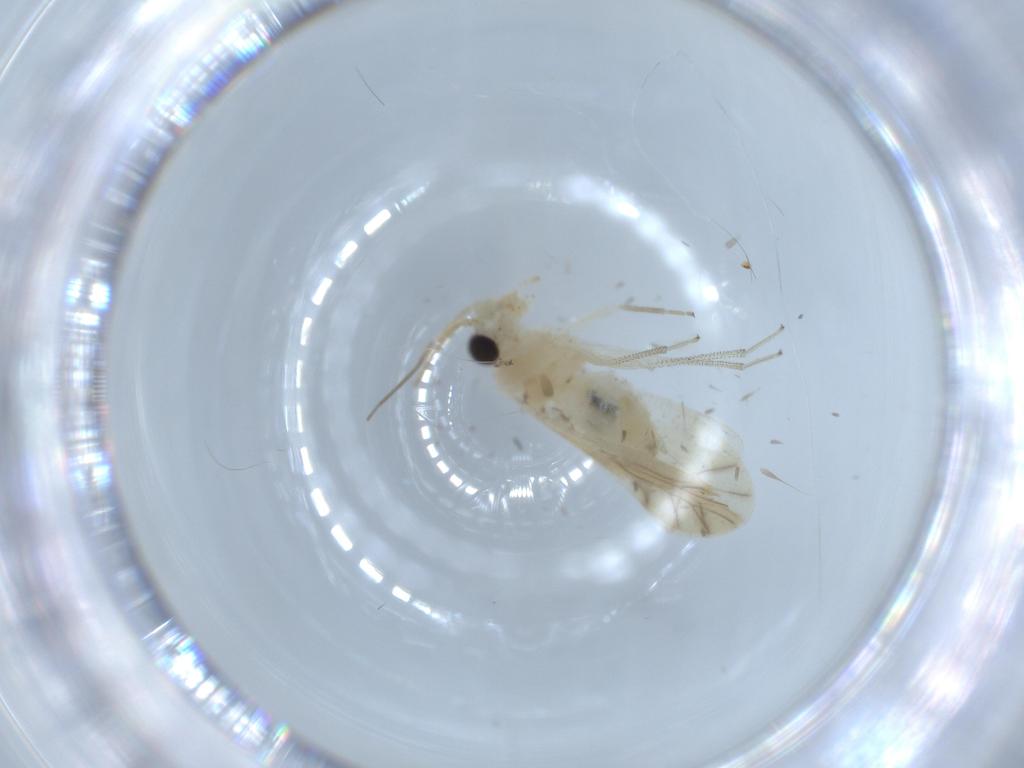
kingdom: Animalia
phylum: Arthropoda
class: Insecta
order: Psocodea
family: Caeciliusidae
